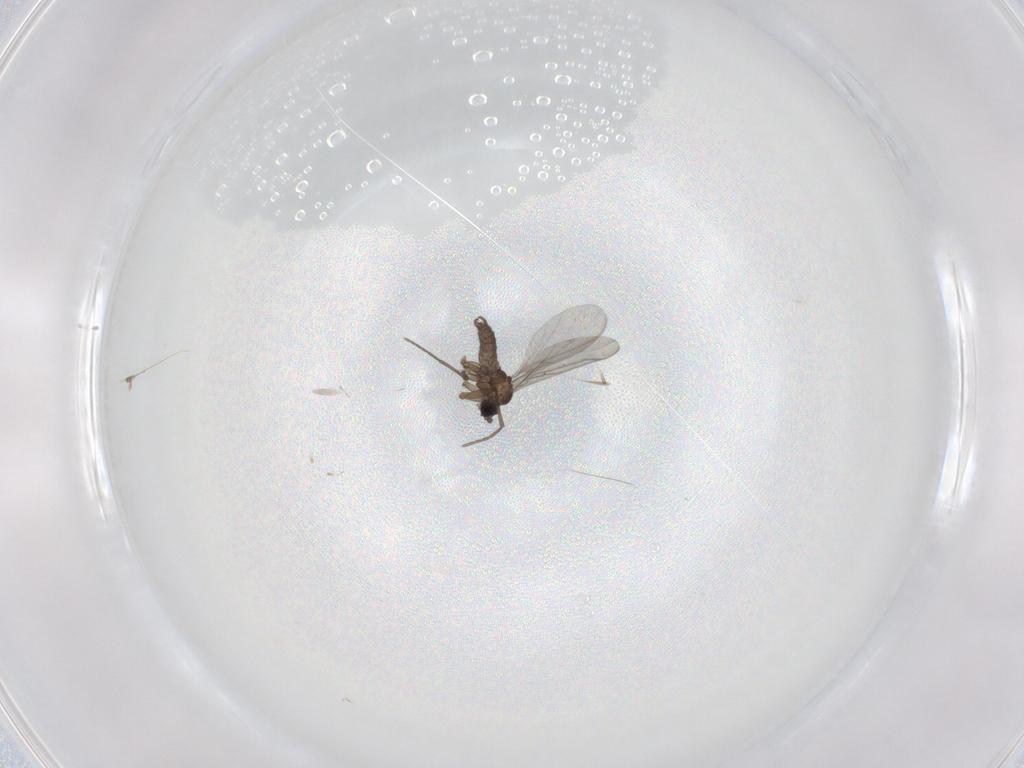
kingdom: Animalia
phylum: Arthropoda
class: Insecta
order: Diptera
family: Sciaridae
